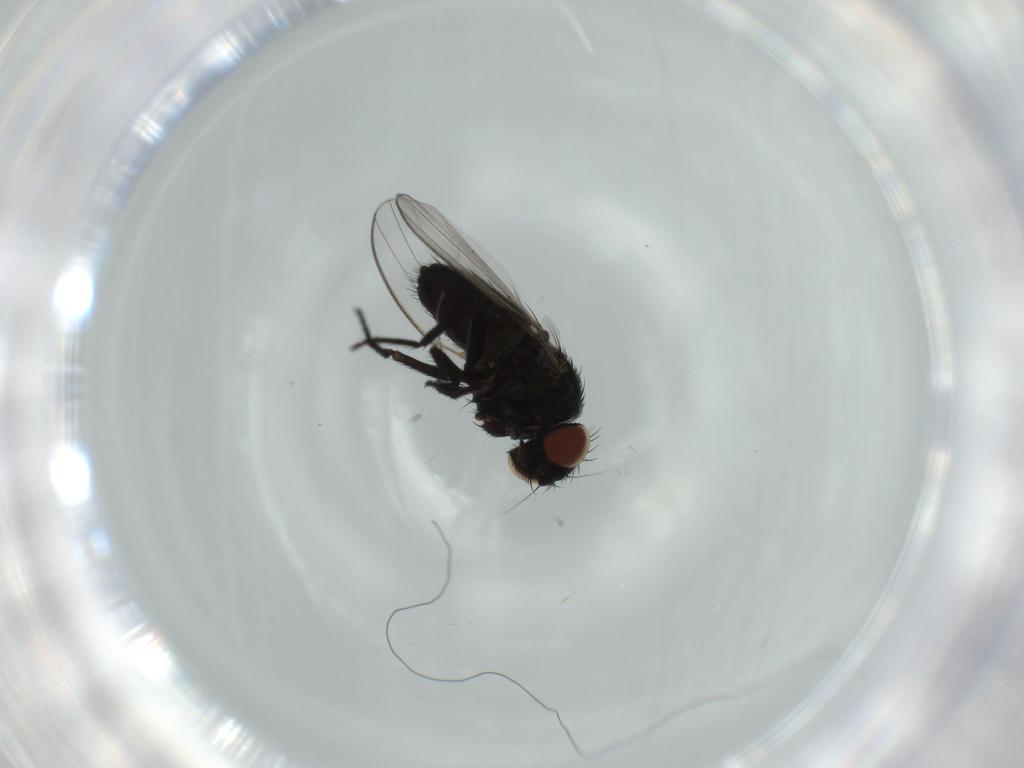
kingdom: Animalia
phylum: Arthropoda
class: Insecta
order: Diptera
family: Milichiidae
